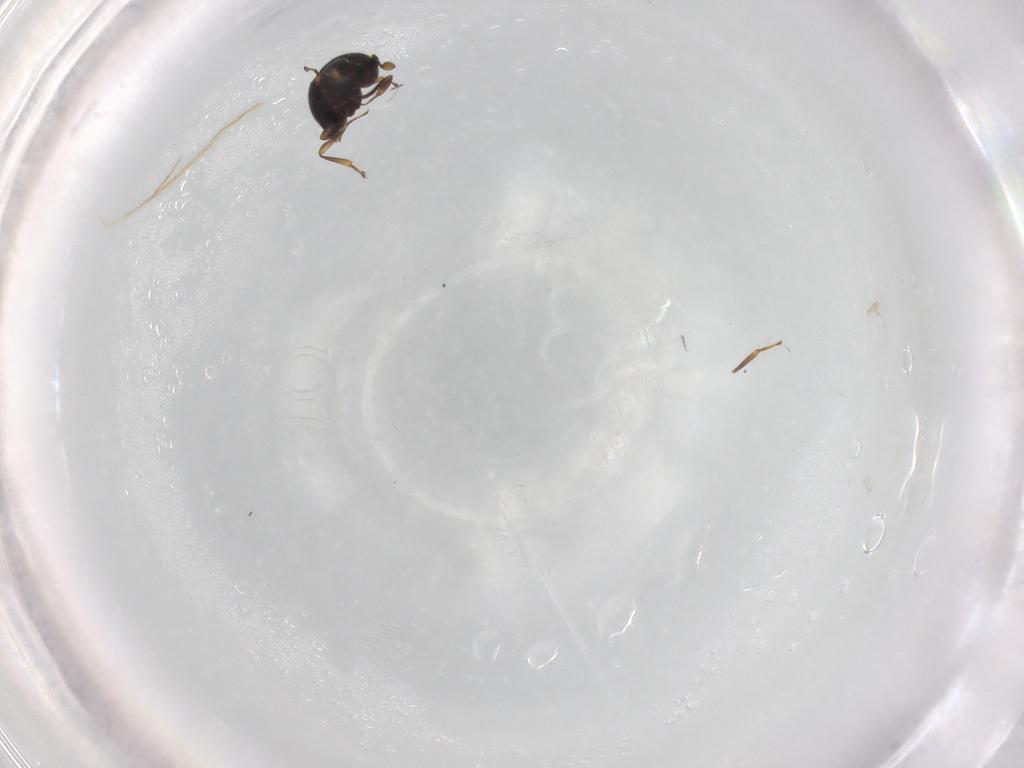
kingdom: Animalia
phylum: Arthropoda
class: Insecta
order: Hymenoptera
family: Scelionidae
